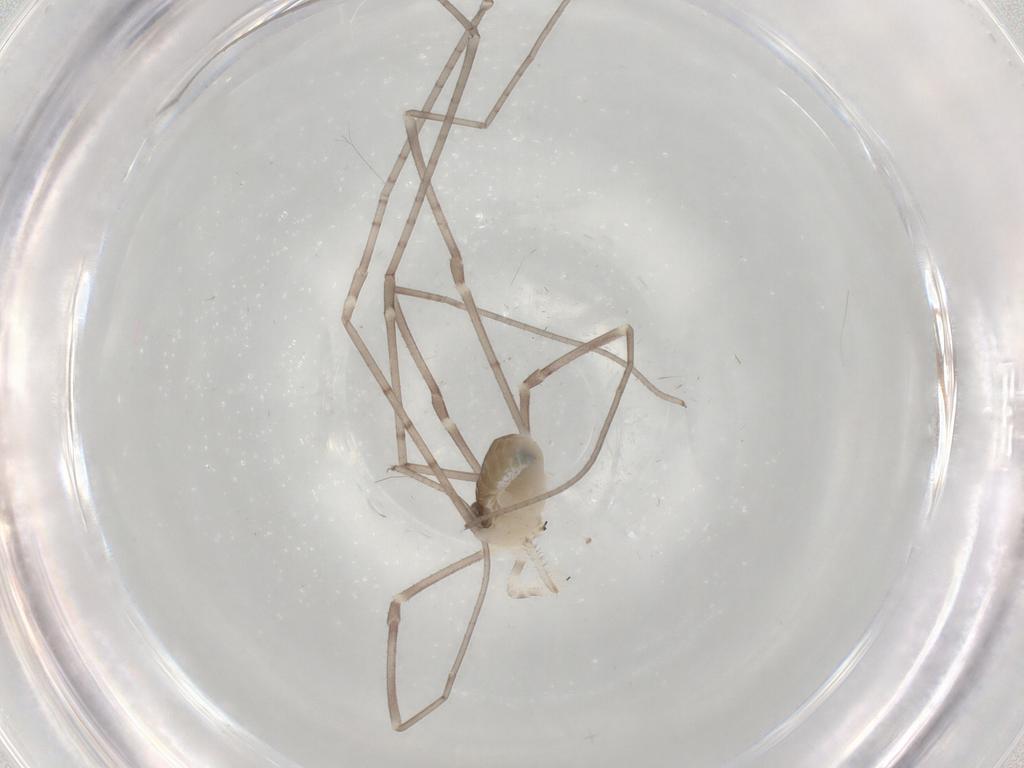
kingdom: Animalia
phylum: Arthropoda
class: Arachnida
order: Opiliones
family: Sclerosomatidae
